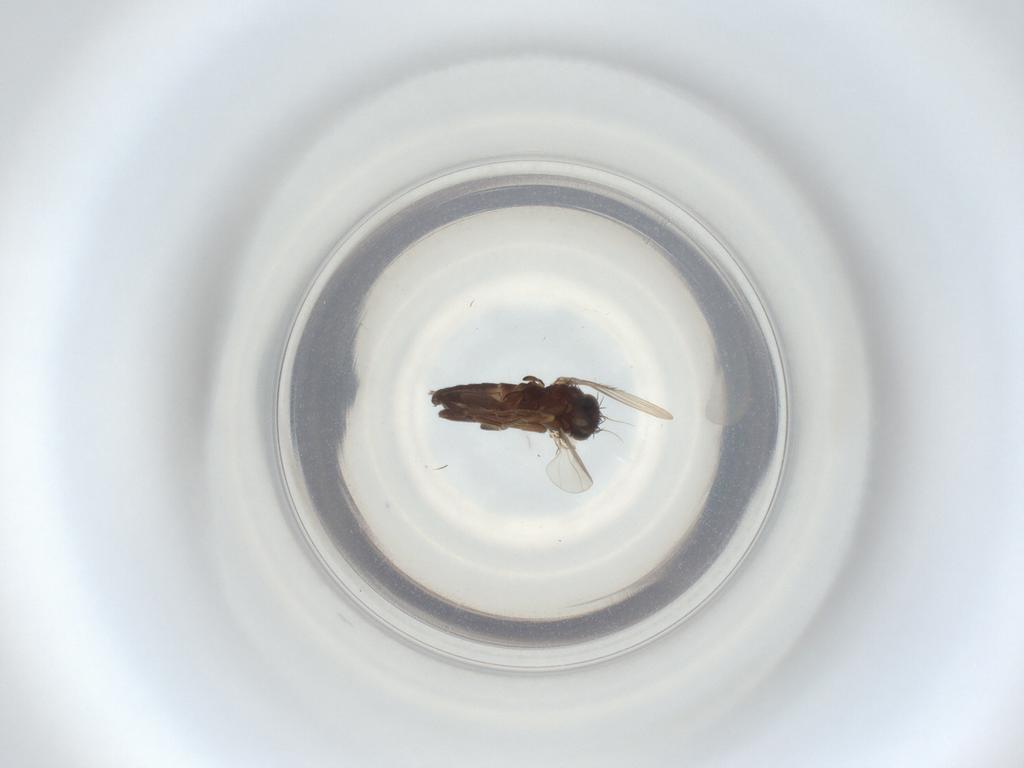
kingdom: Animalia
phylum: Arthropoda
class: Insecta
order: Diptera
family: Phoridae
